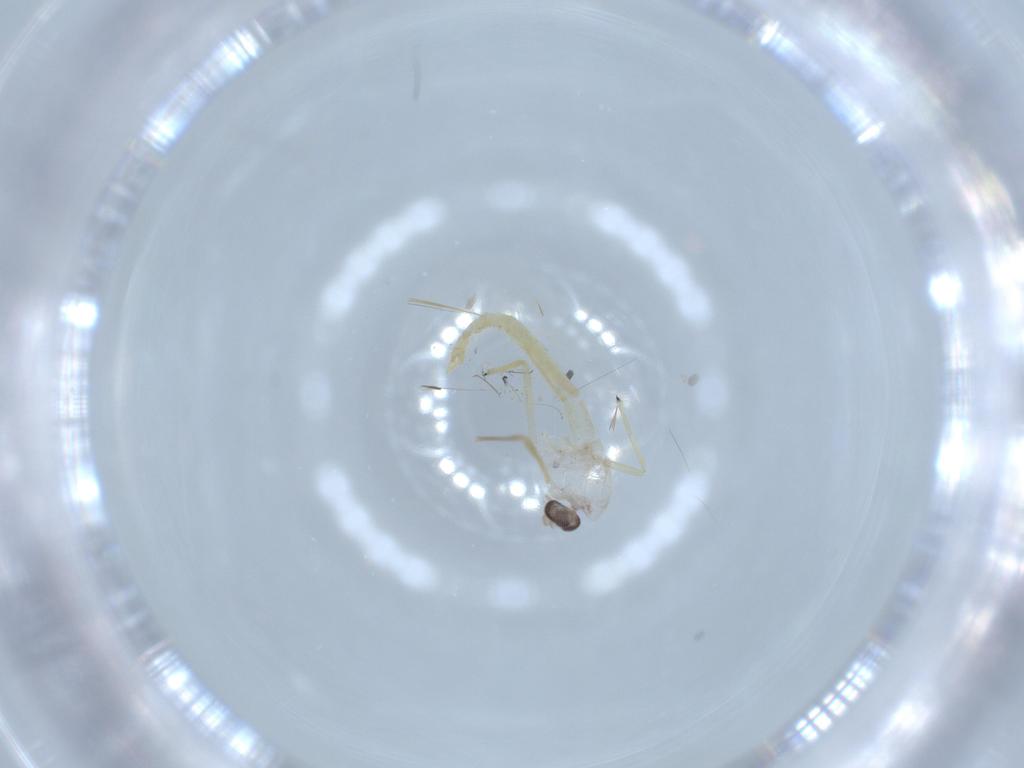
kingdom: Animalia
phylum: Arthropoda
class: Insecta
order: Diptera
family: Chironomidae
